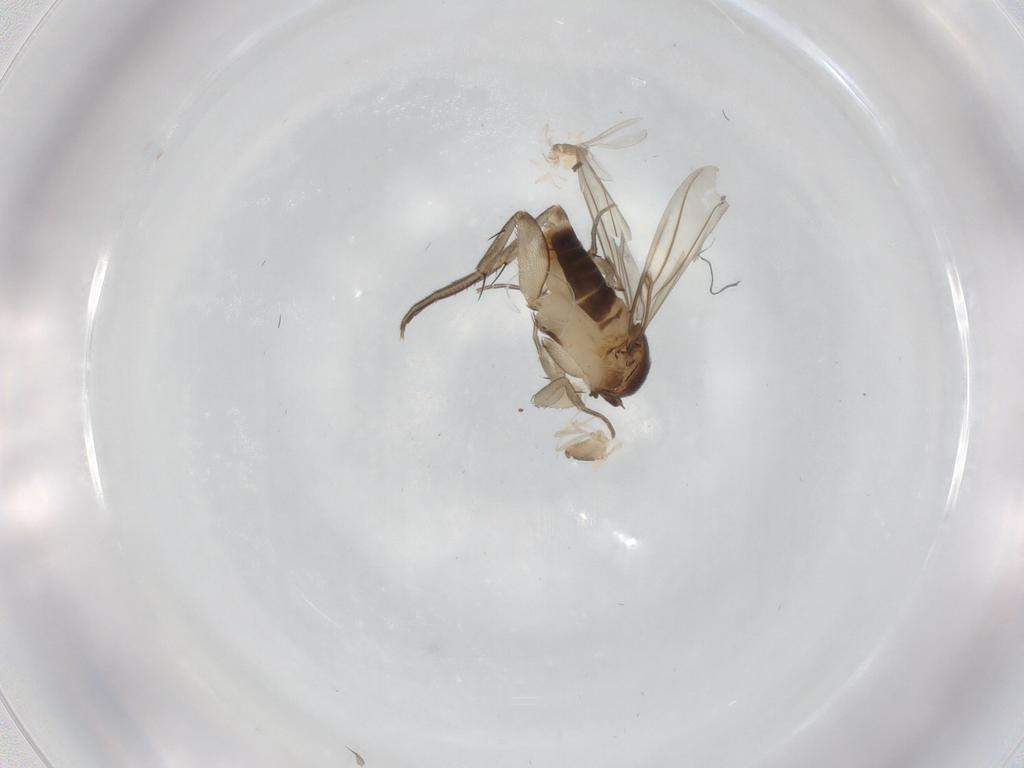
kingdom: Animalia
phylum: Arthropoda
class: Insecta
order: Diptera
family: Phoridae
